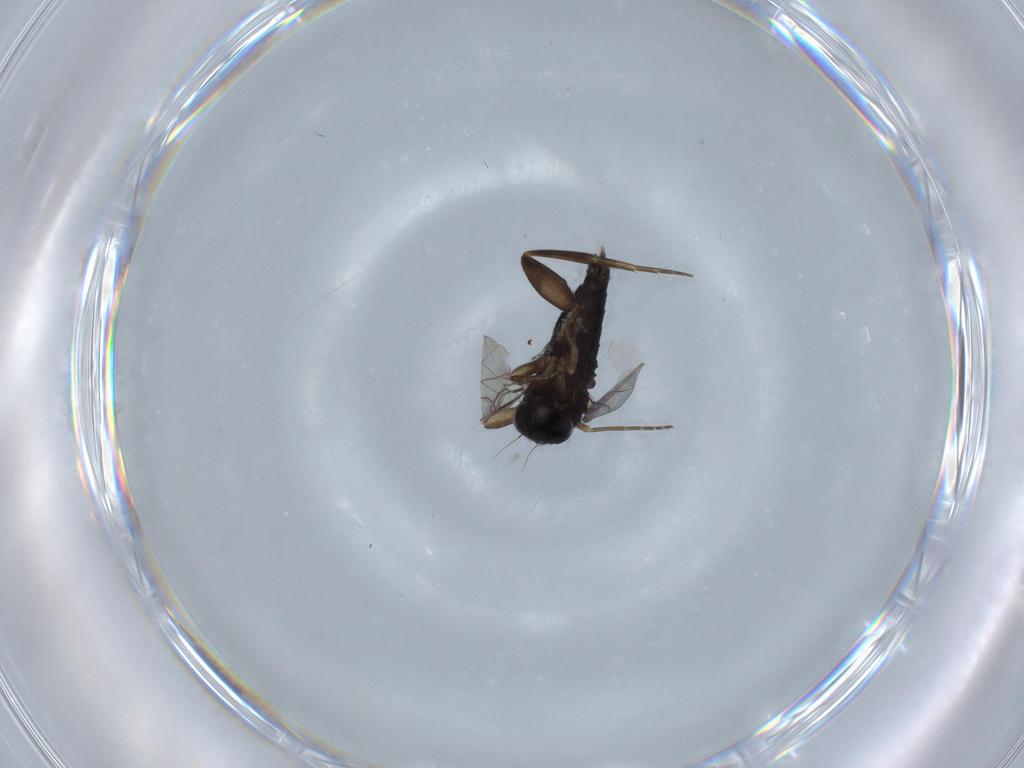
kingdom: Animalia
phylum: Arthropoda
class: Insecta
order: Diptera
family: Phoridae
